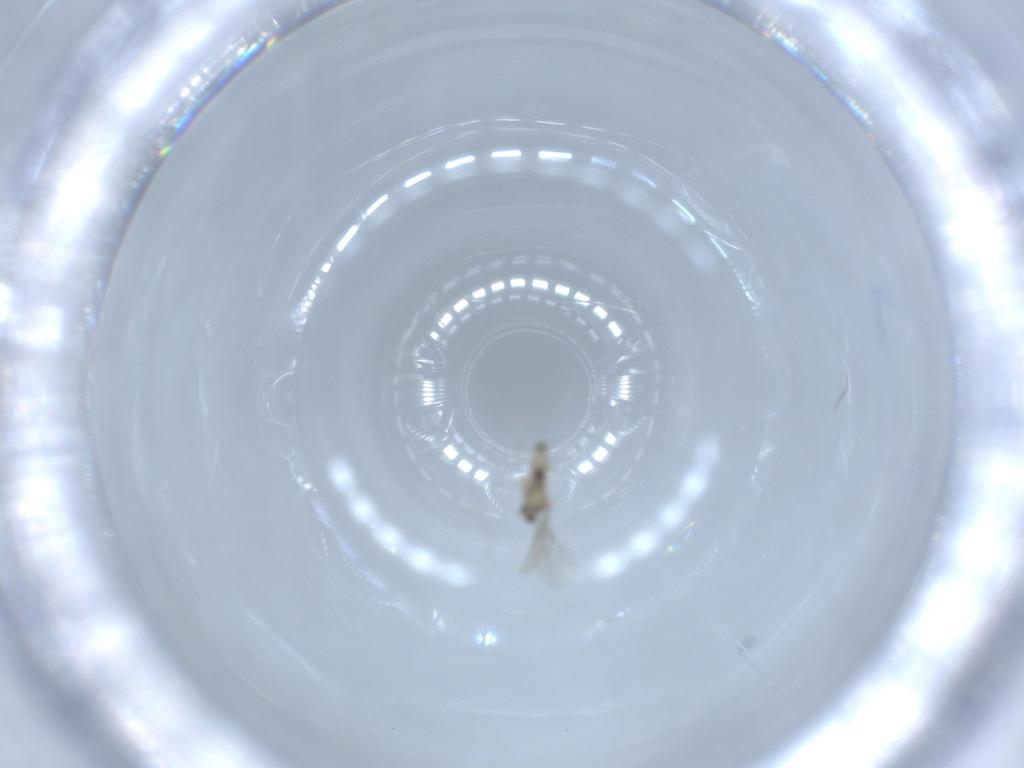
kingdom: Animalia
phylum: Arthropoda
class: Insecta
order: Diptera
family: Cecidomyiidae
